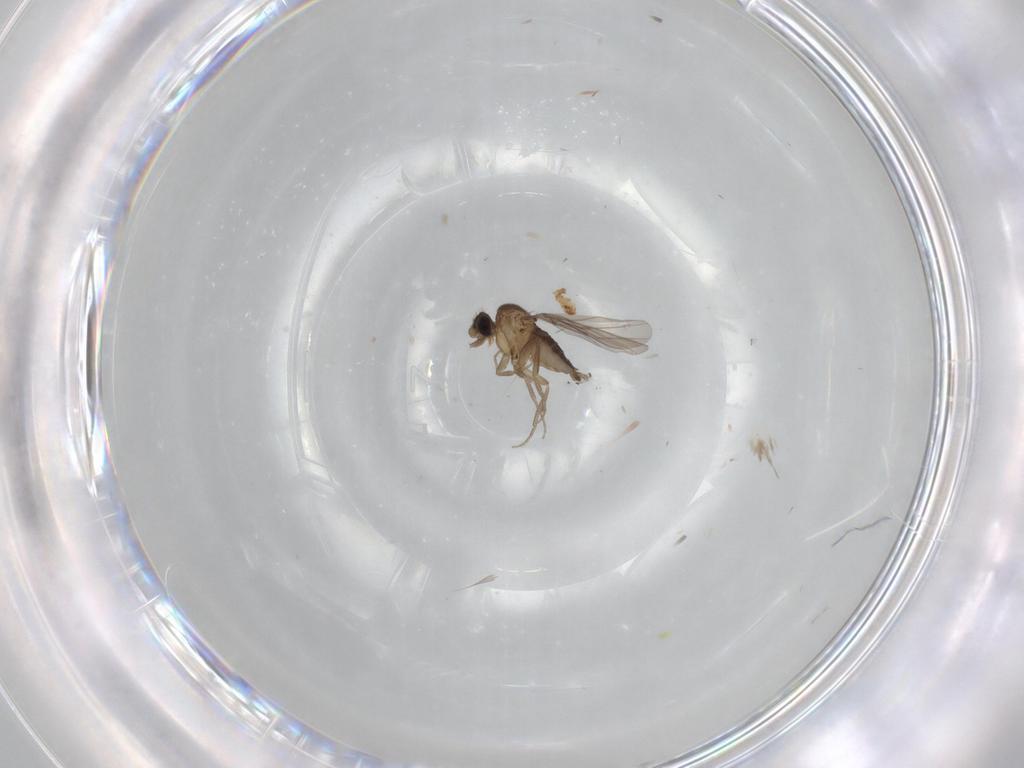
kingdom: Animalia
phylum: Arthropoda
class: Insecta
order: Diptera
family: Phoridae
